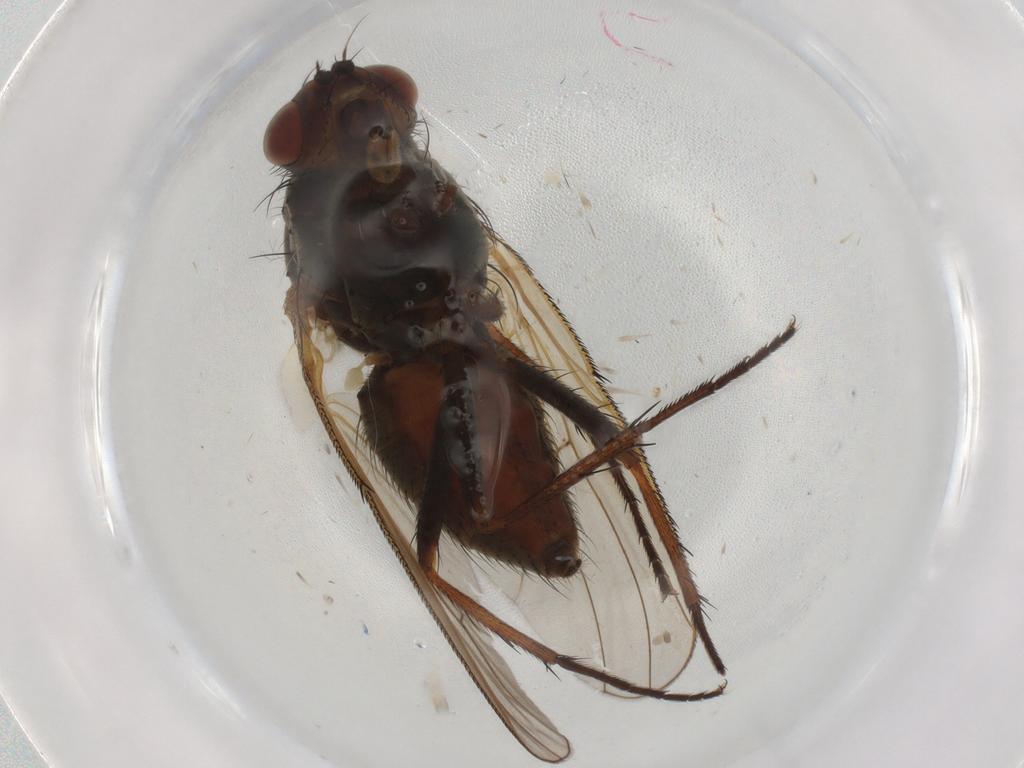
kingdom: Animalia
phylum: Arthropoda
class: Insecta
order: Diptera
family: Anthomyiidae
